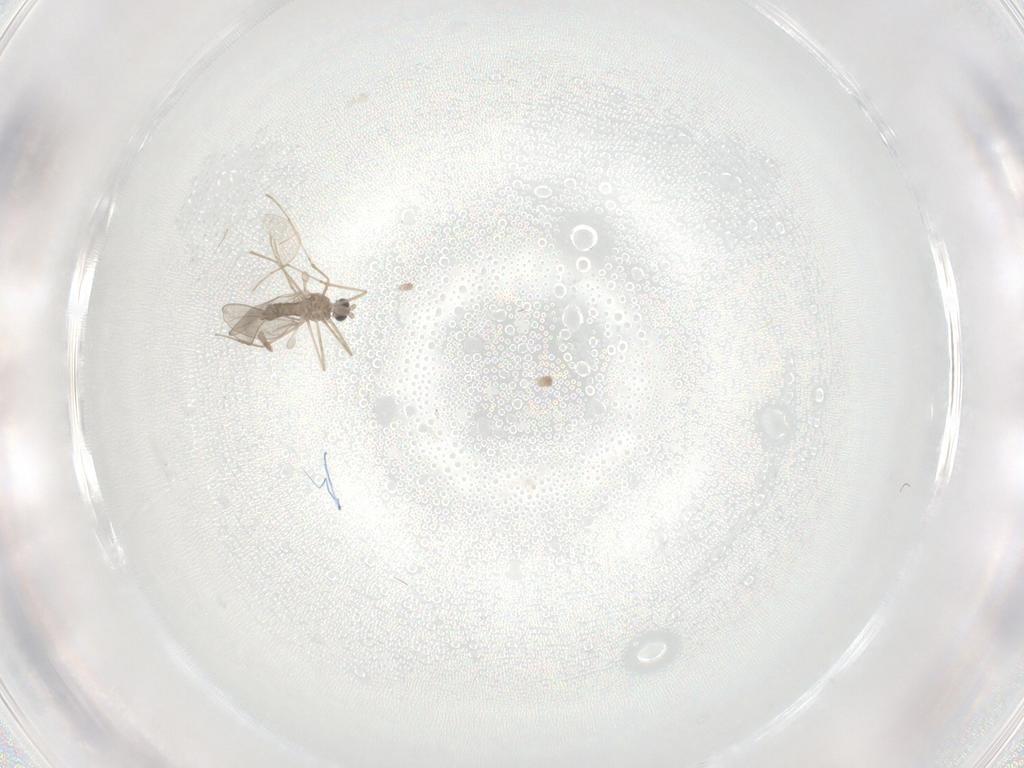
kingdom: Animalia
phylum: Arthropoda
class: Insecta
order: Diptera
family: Cecidomyiidae
